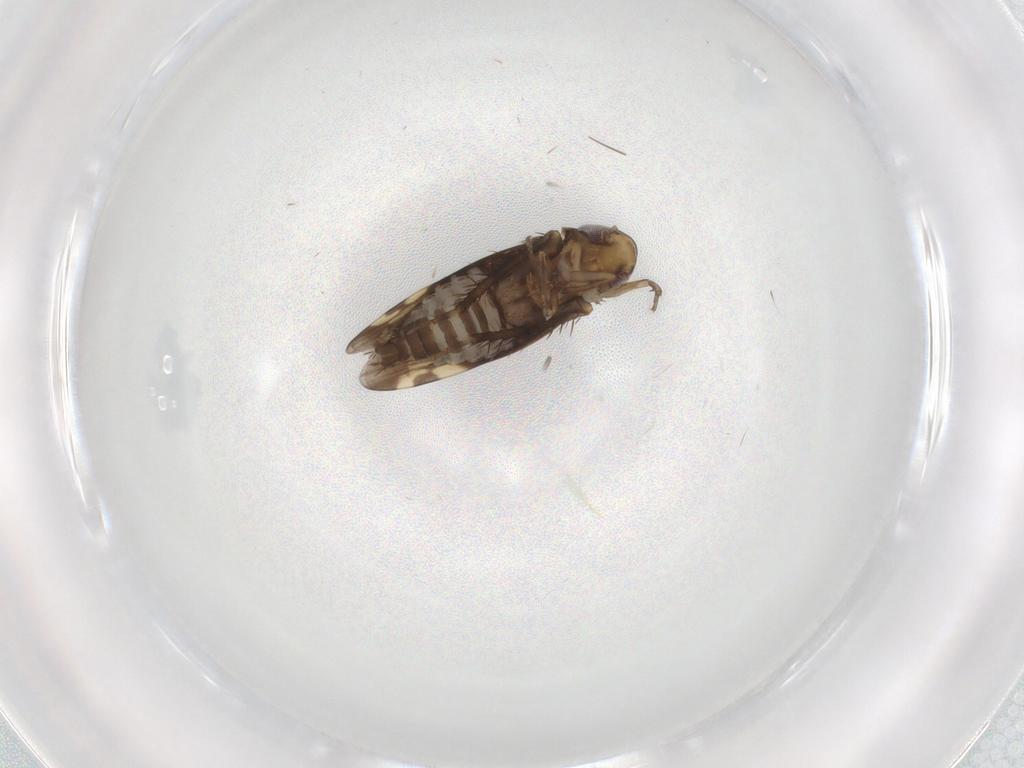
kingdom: Animalia
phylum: Arthropoda
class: Insecta
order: Hemiptera
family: Cicadellidae
